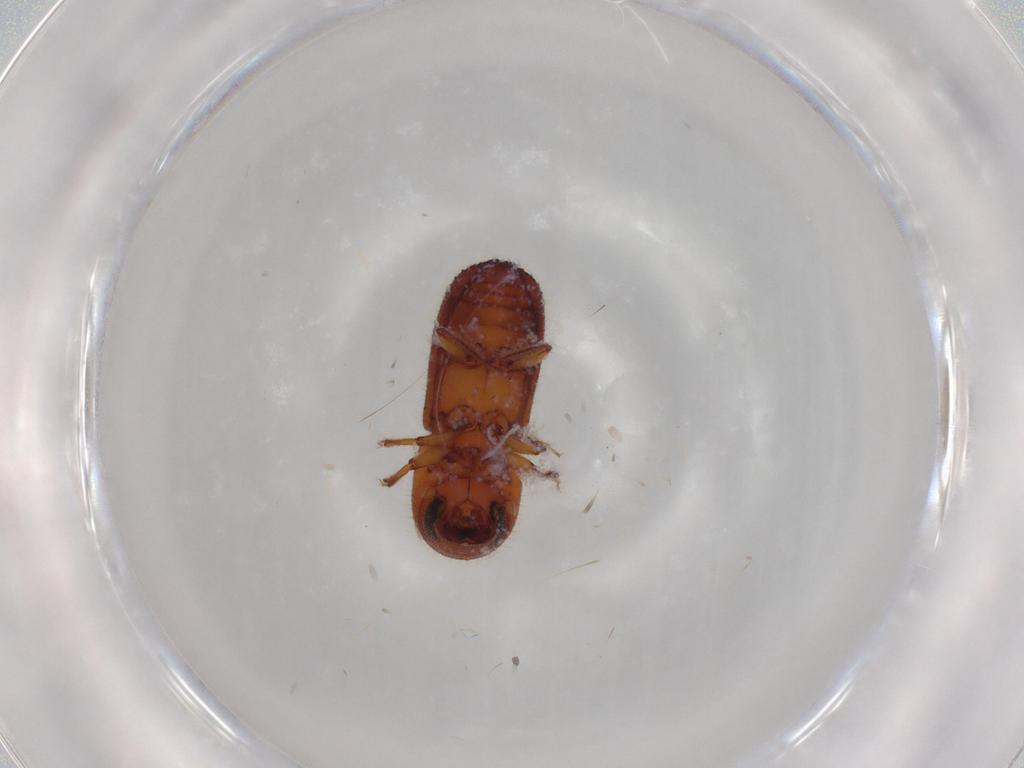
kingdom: Animalia
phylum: Arthropoda
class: Insecta
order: Coleoptera
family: Curculionidae
